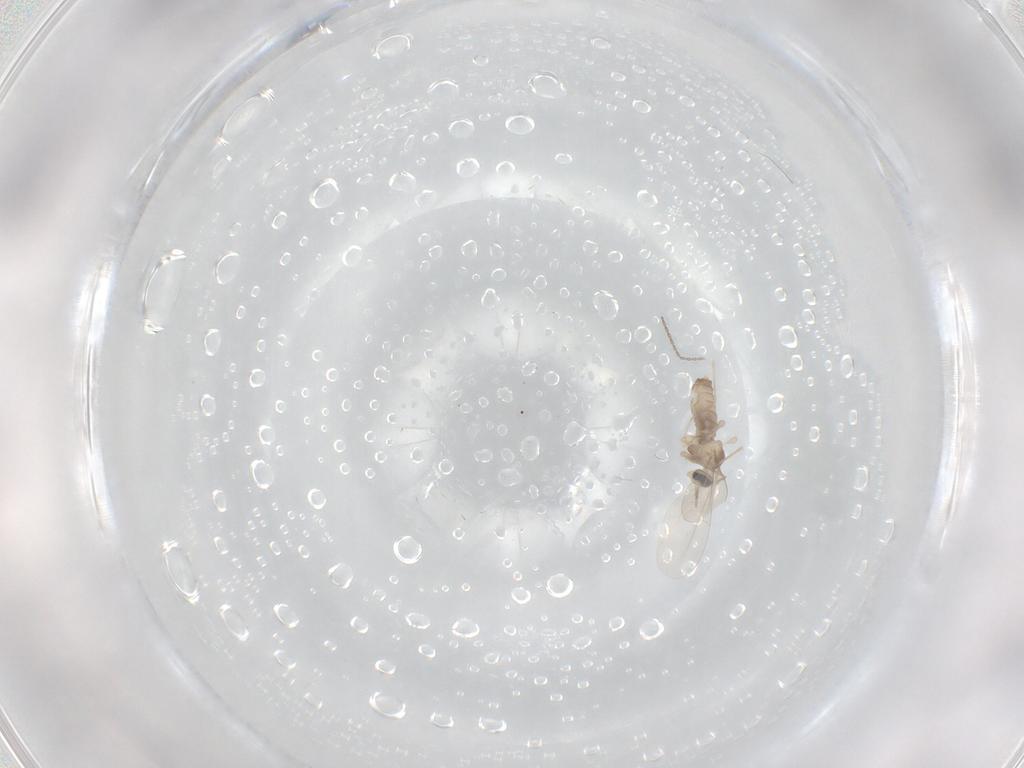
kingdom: Animalia
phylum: Arthropoda
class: Insecta
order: Diptera
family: Cecidomyiidae
